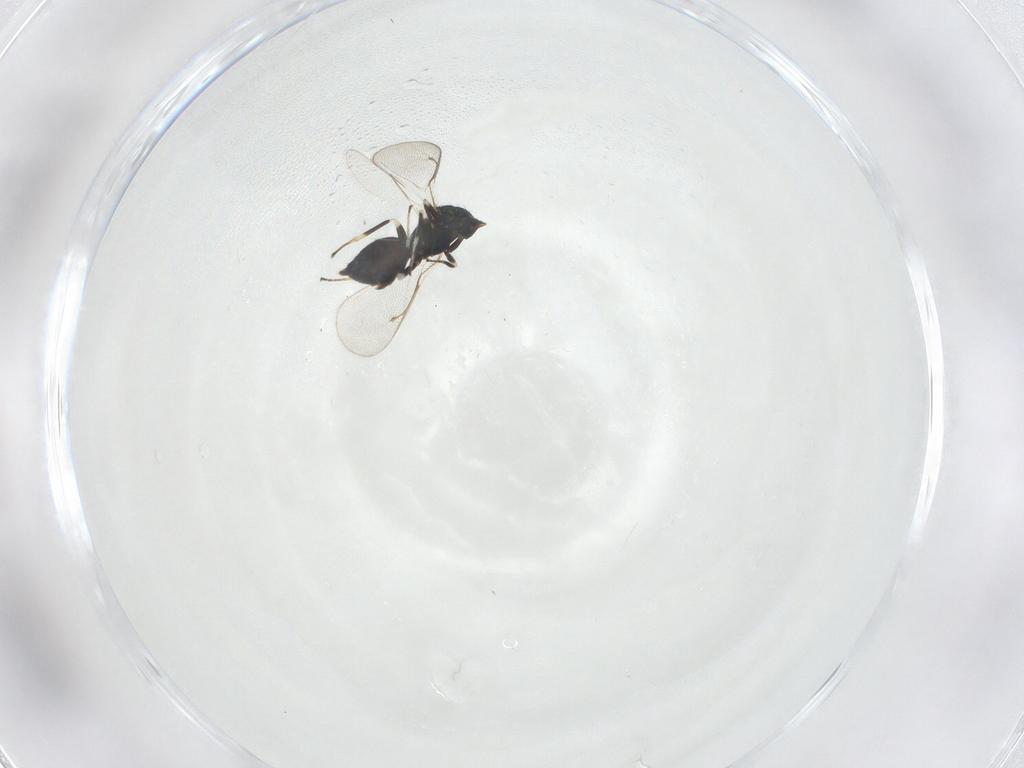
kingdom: Animalia
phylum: Arthropoda
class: Insecta
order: Hymenoptera
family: Eulophidae
